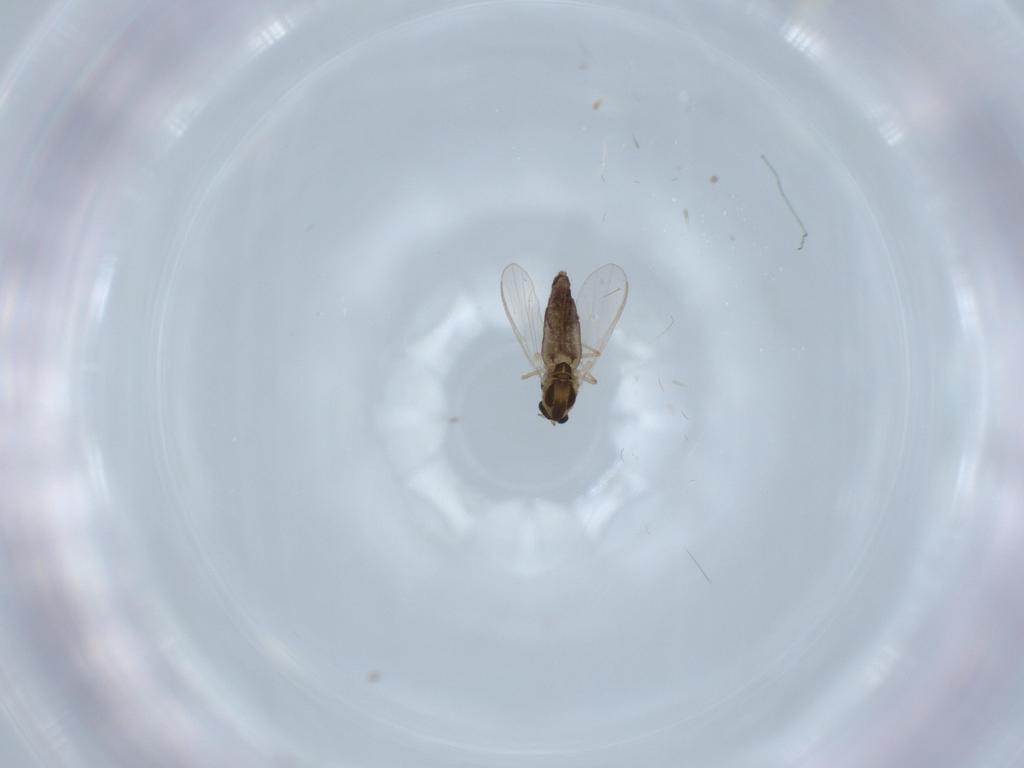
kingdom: Animalia
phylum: Arthropoda
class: Insecta
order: Diptera
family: Chironomidae
